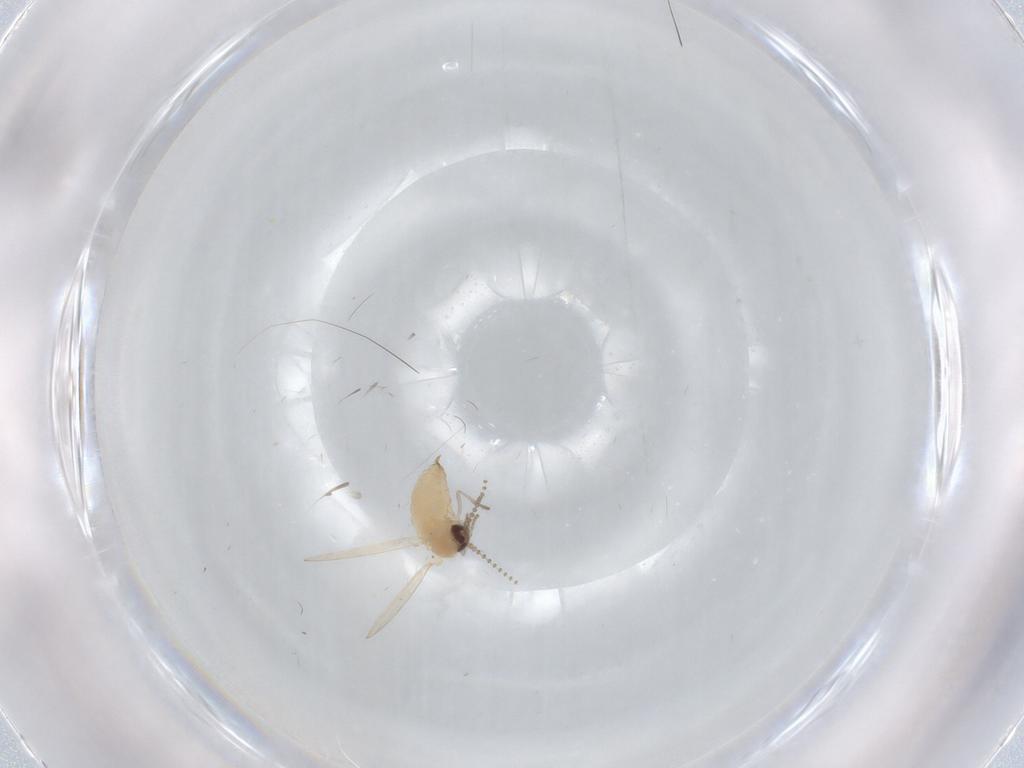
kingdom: Animalia
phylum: Arthropoda
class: Insecta
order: Diptera
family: Psychodidae
